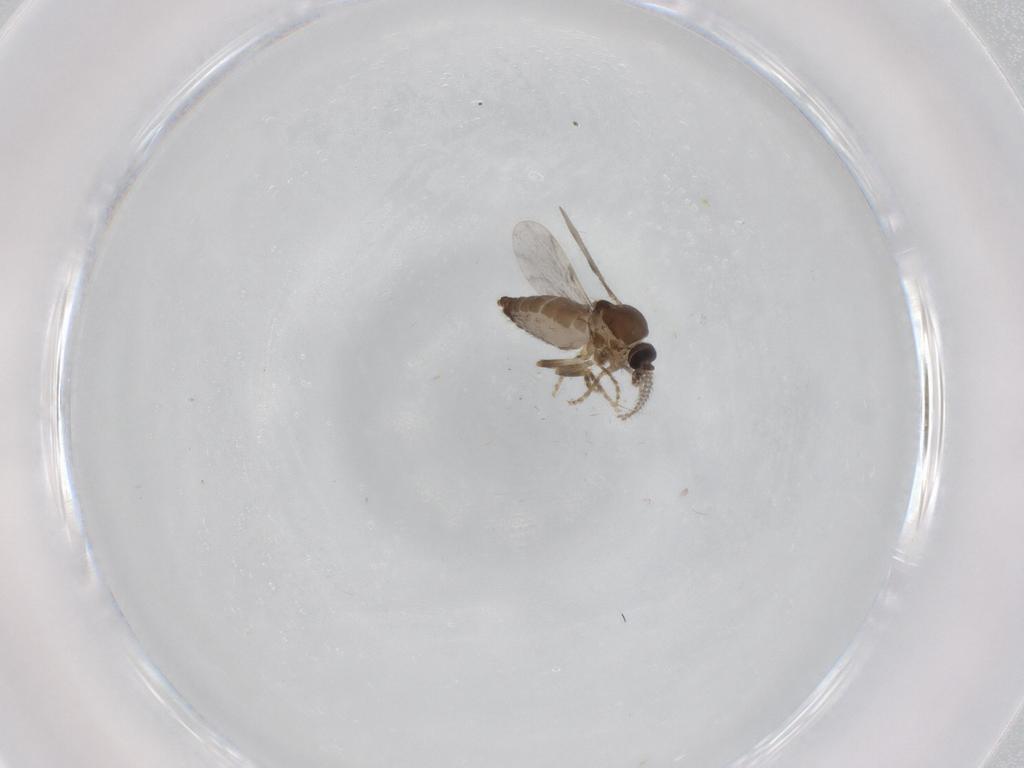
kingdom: Animalia
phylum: Arthropoda
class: Insecta
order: Diptera
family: Ceratopogonidae
